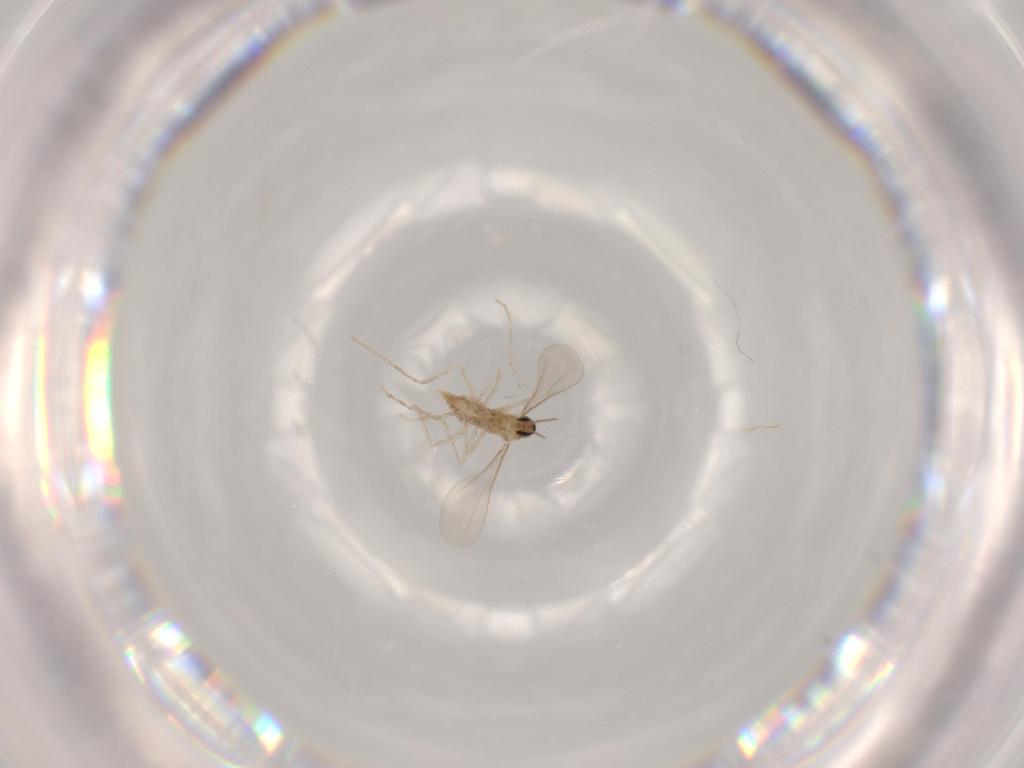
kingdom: Animalia
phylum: Arthropoda
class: Insecta
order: Diptera
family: Cecidomyiidae
